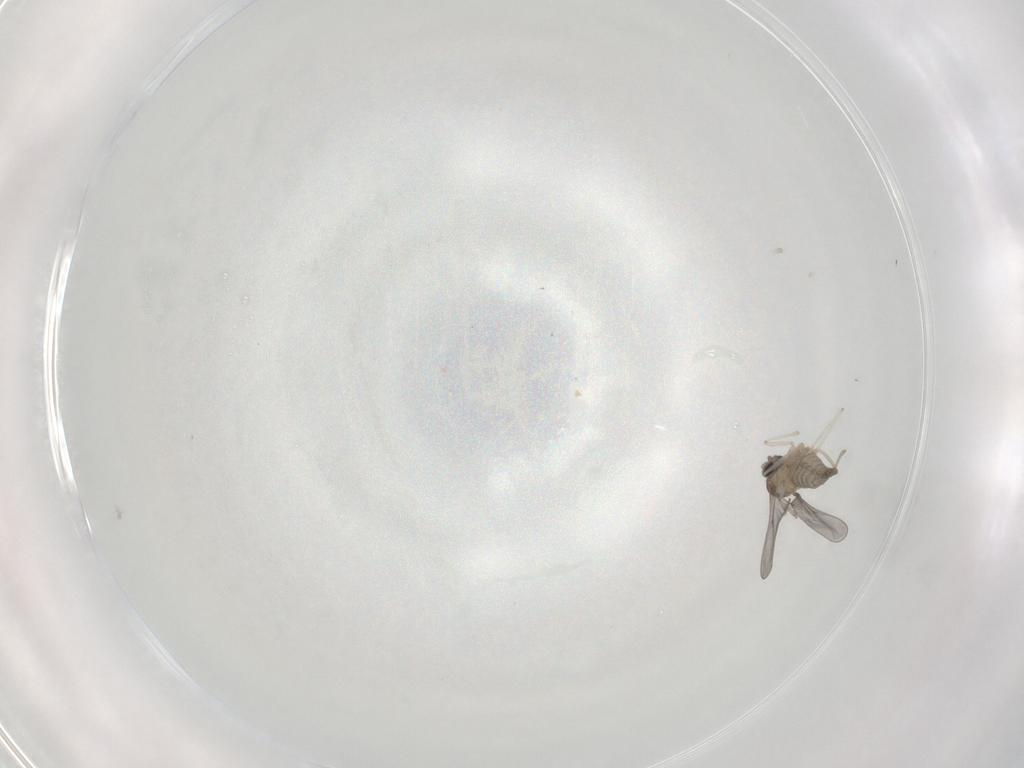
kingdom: Animalia
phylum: Arthropoda
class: Insecta
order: Diptera
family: Cecidomyiidae
